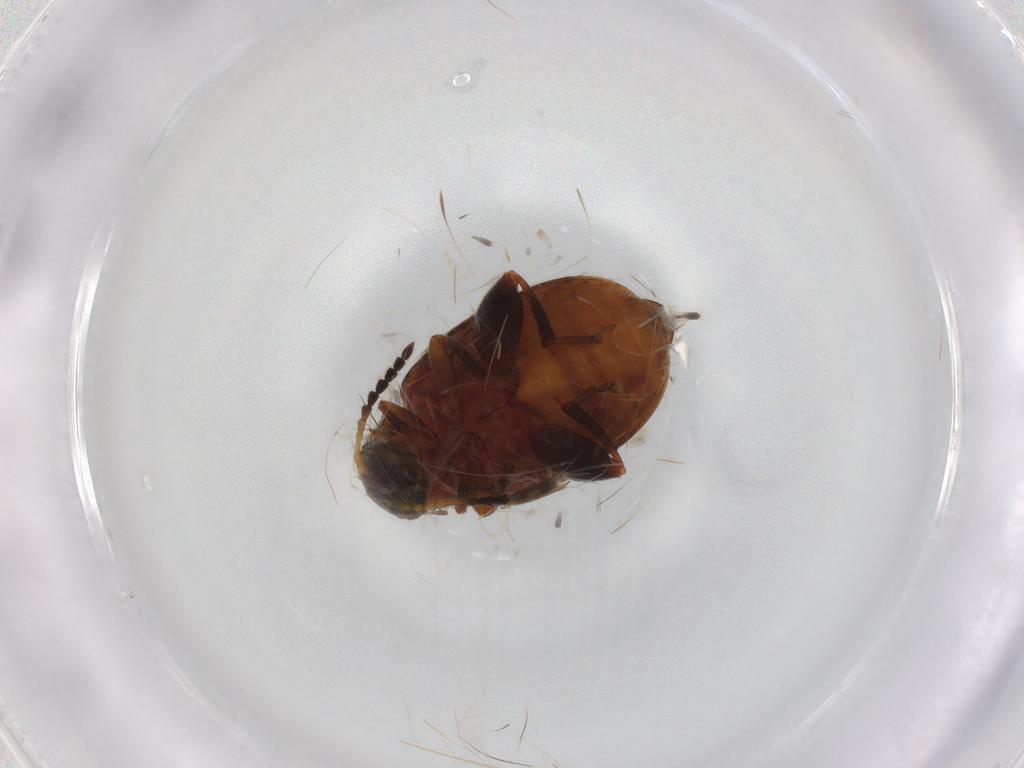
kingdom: Animalia
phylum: Arthropoda
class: Insecta
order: Coleoptera
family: Chrysomelidae
